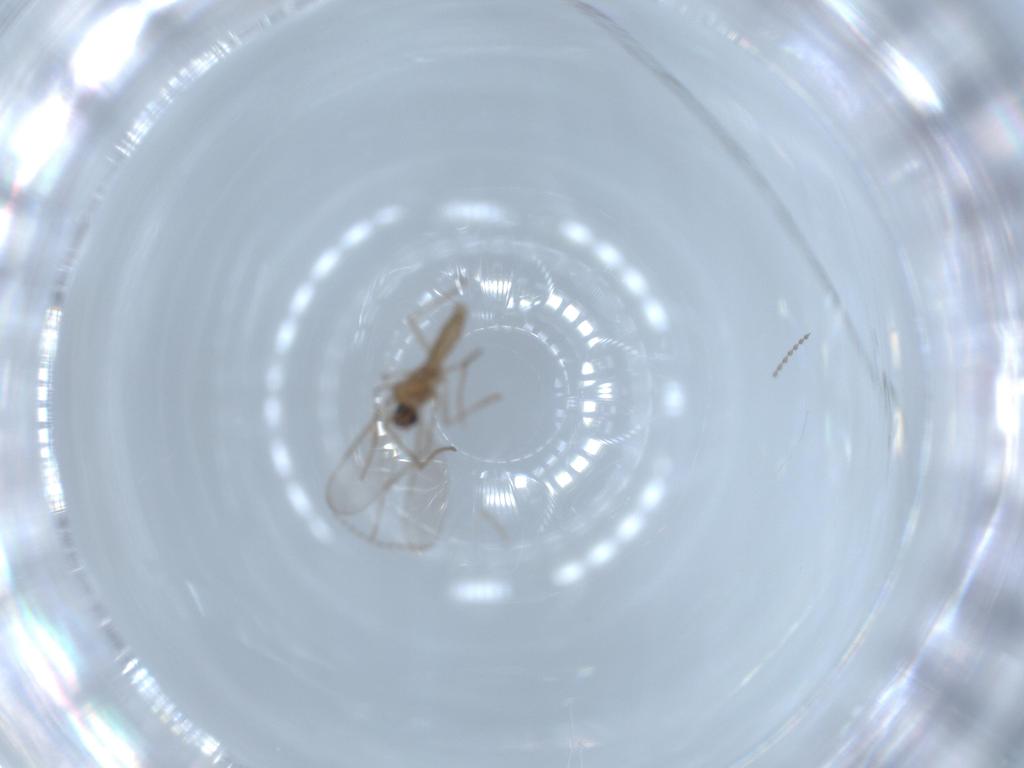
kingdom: Animalia
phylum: Arthropoda
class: Insecta
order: Diptera
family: Cecidomyiidae
